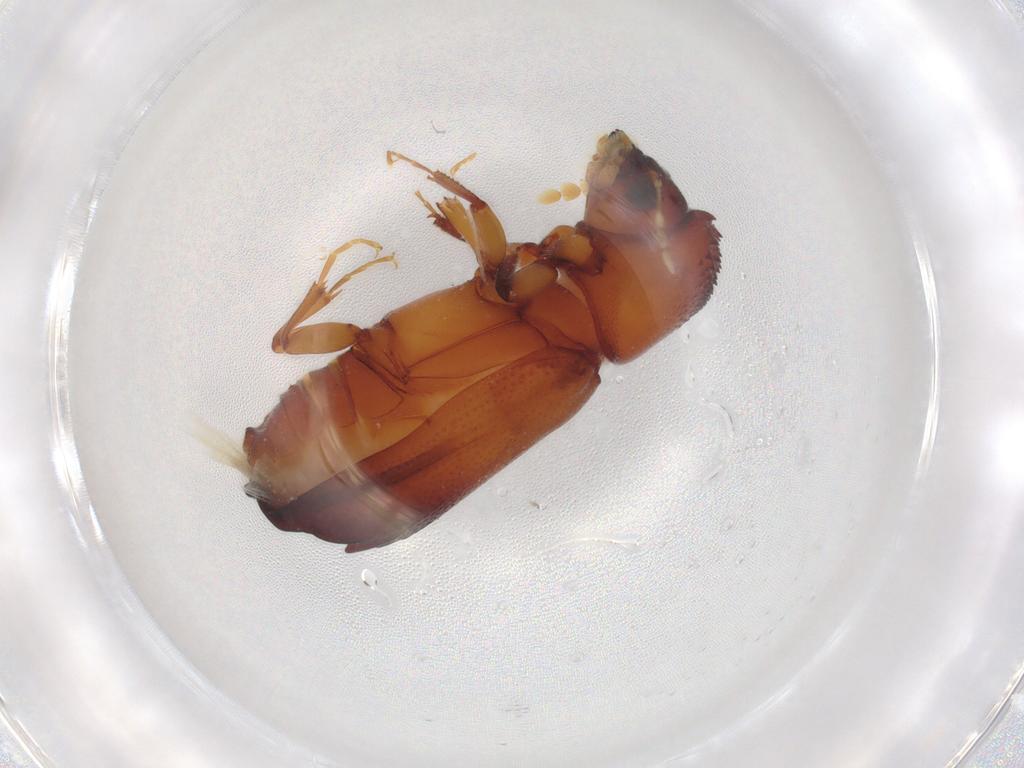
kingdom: Animalia
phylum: Arthropoda
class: Insecta
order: Coleoptera
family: Bostrichidae
